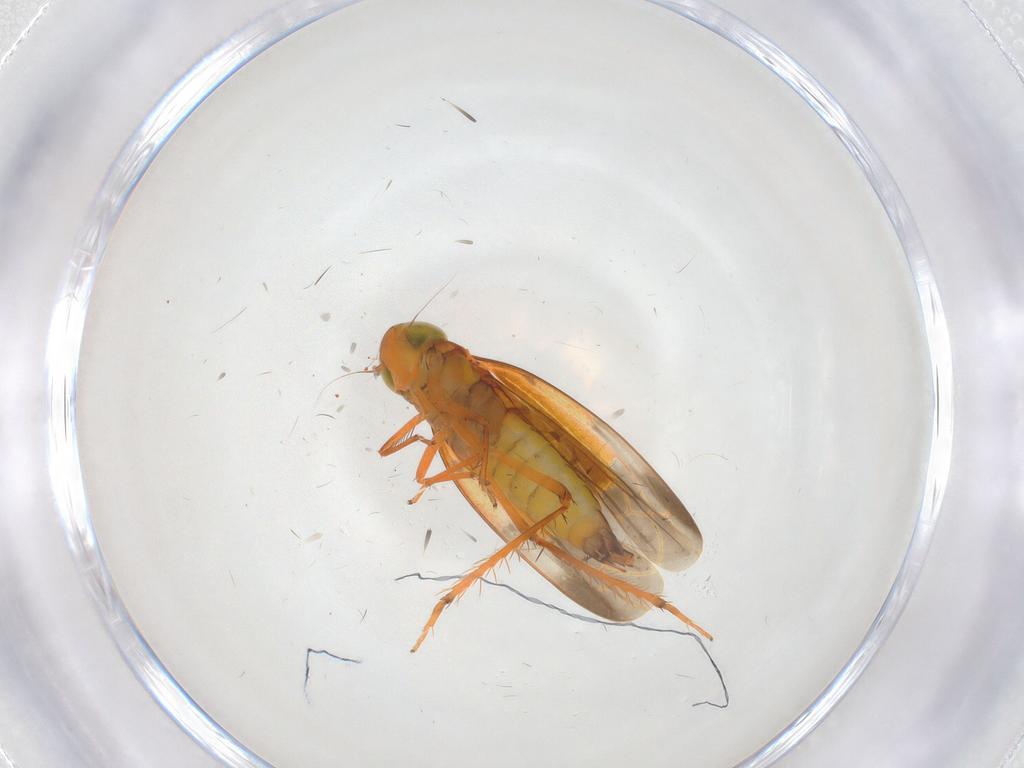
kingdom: Animalia
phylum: Arthropoda
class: Insecta
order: Hemiptera
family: Cicadellidae
